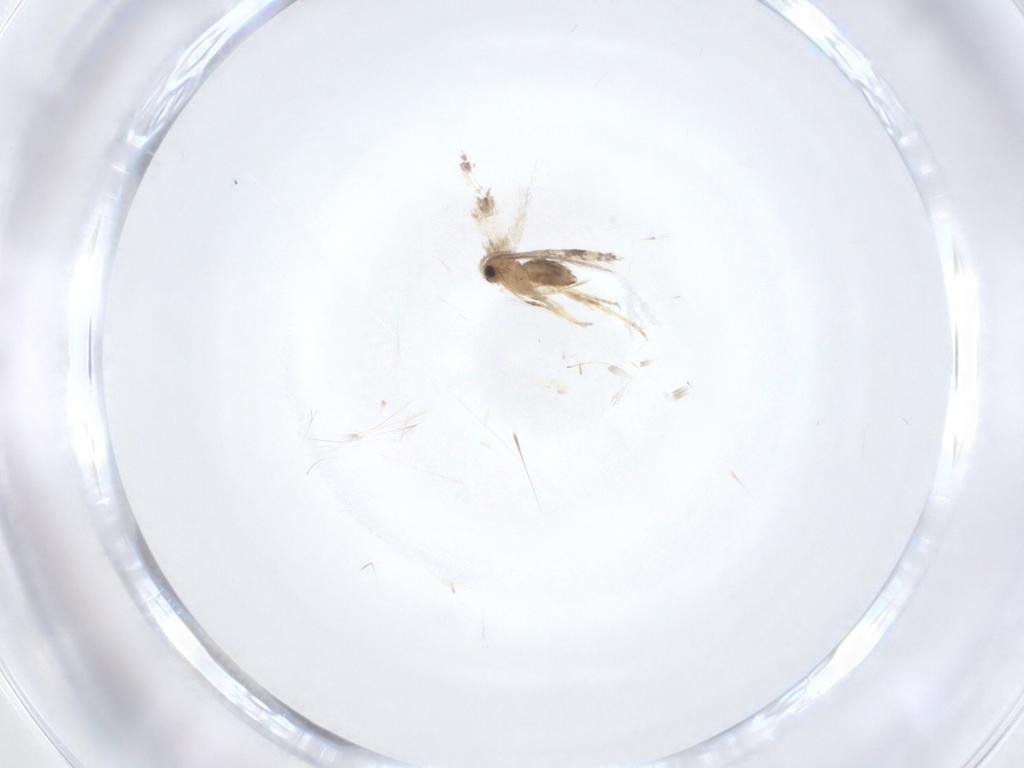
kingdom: Animalia
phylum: Arthropoda
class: Insecta
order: Lepidoptera
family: Nepticulidae
